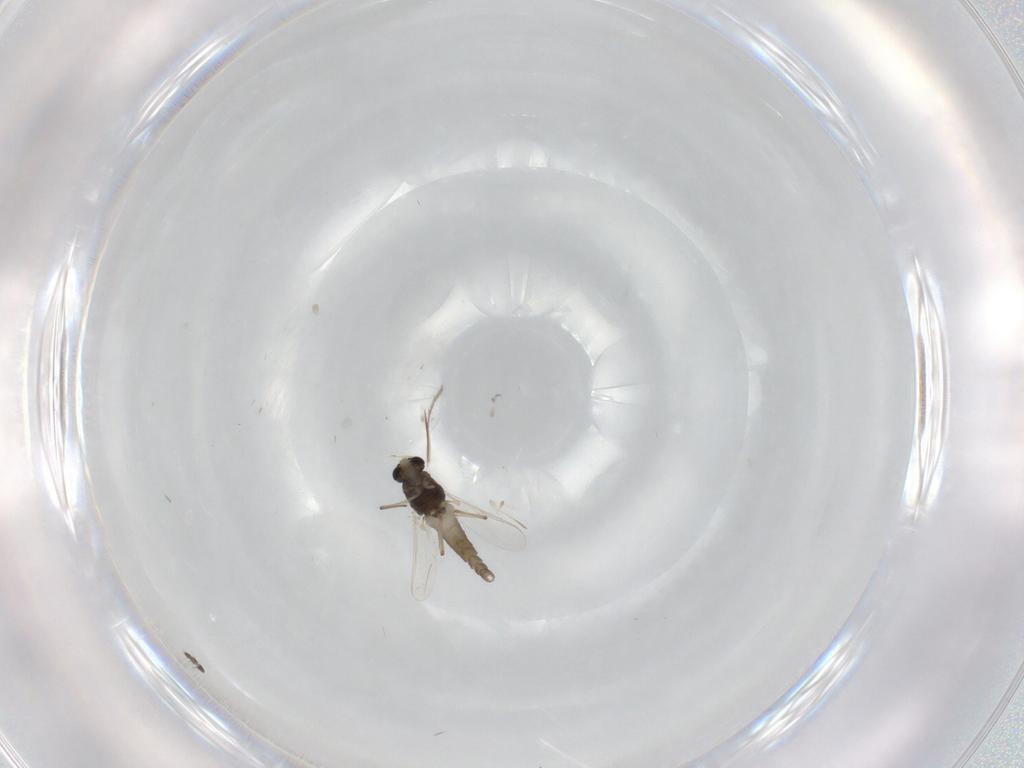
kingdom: Animalia
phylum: Arthropoda
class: Insecta
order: Diptera
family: Limoniidae
